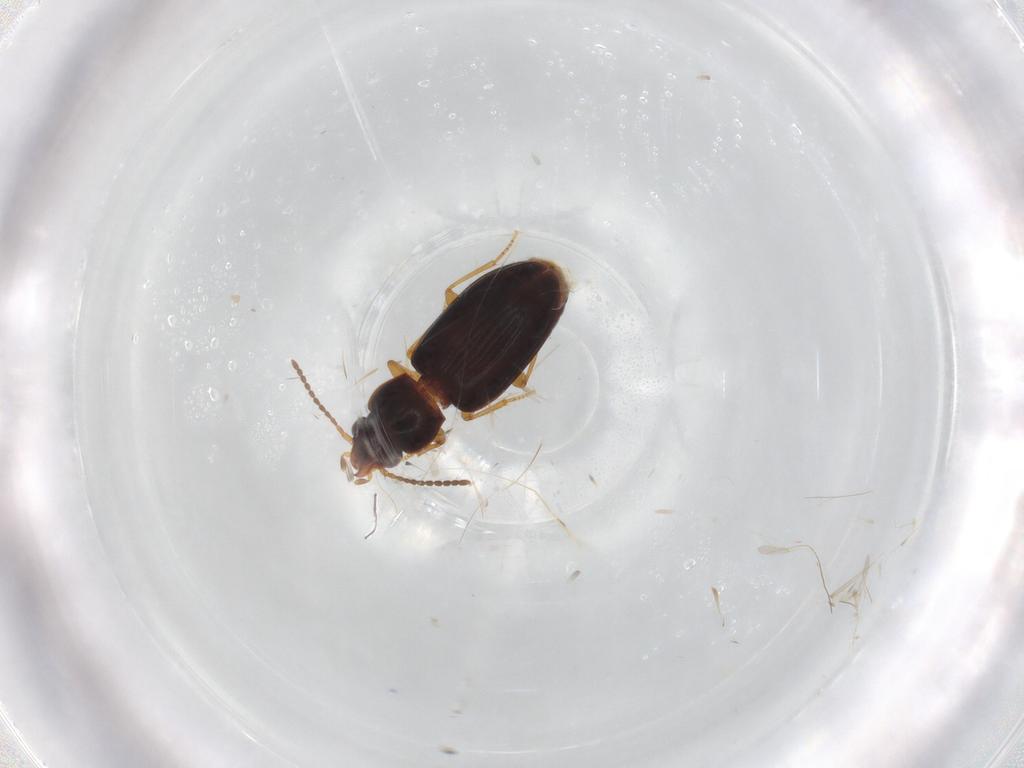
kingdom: Animalia
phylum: Arthropoda
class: Insecta
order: Coleoptera
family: Carabidae
